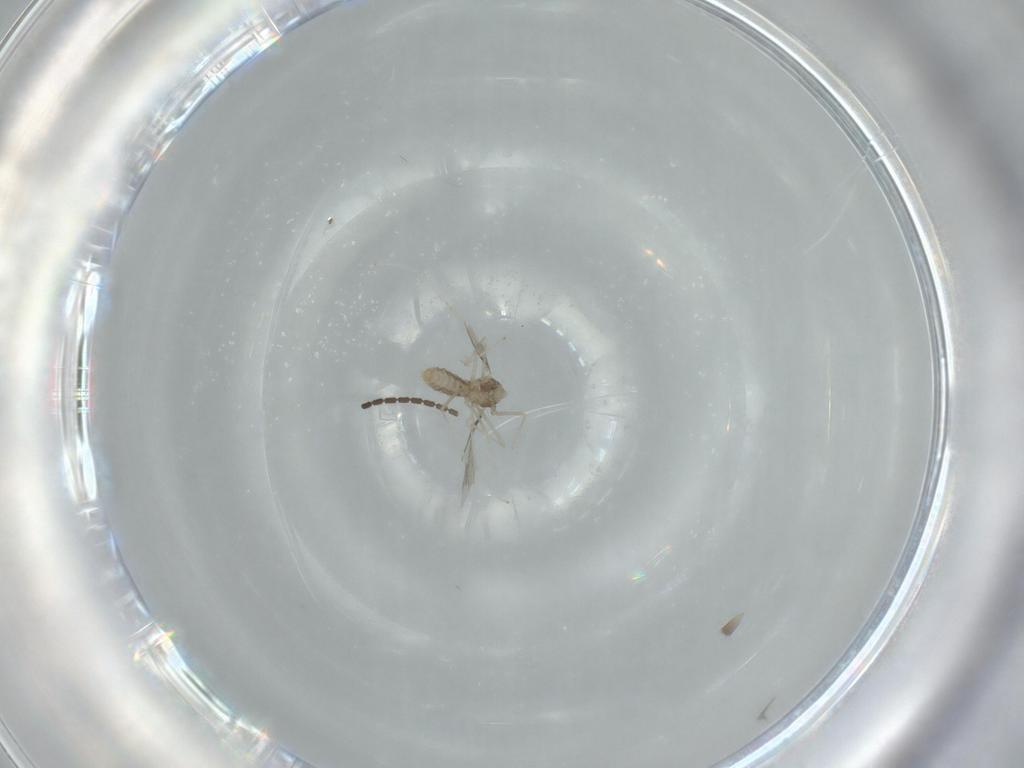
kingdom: Animalia
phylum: Arthropoda
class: Insecta
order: Diptera
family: Cecidomyiidae
